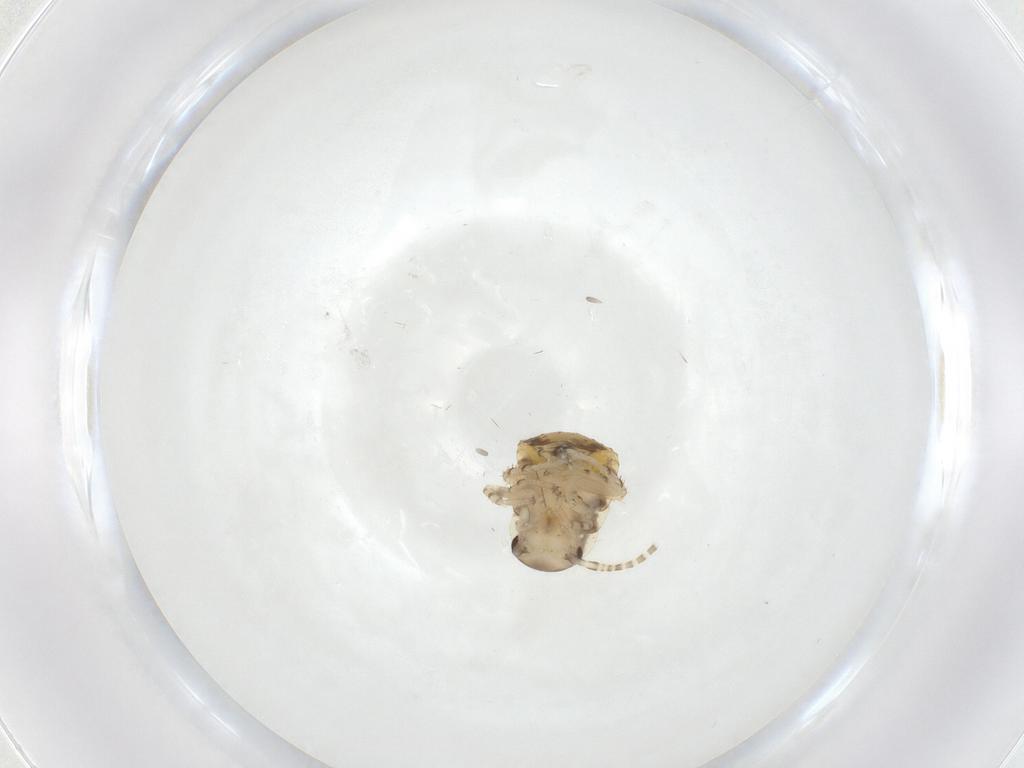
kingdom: Animalia
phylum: Arthropoda
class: Insecta
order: Blattodea
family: Ectobiidae
